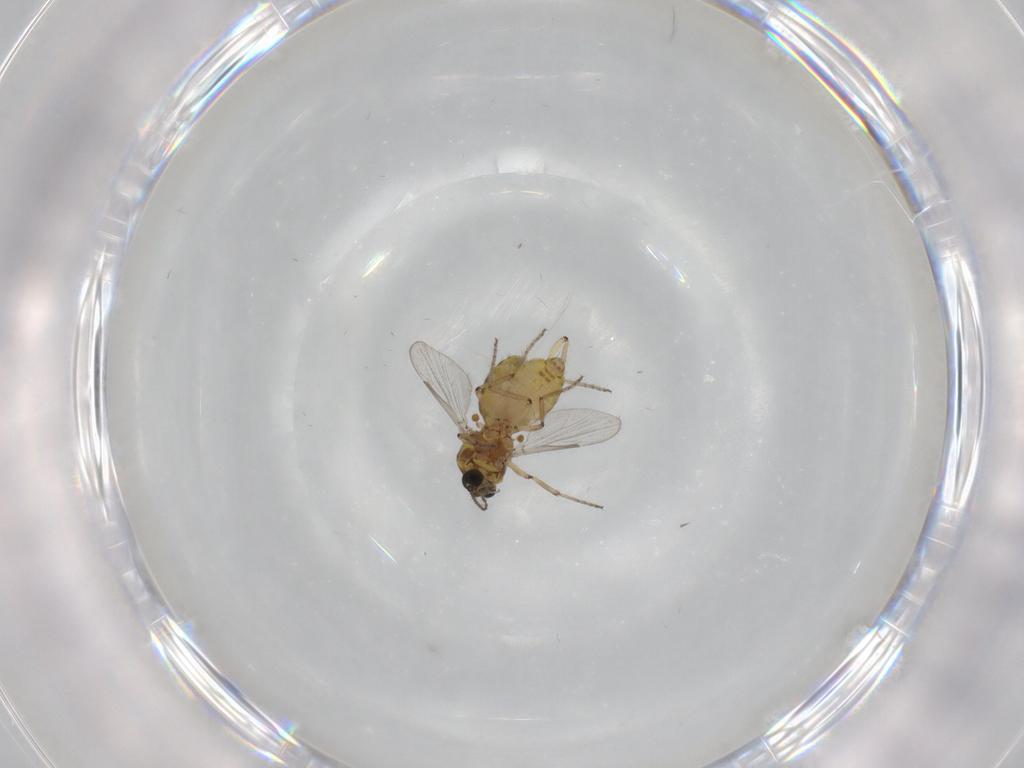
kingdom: Animalia
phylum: Arthropoda
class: Insecta
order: Diptera
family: Ceratopogonidae
